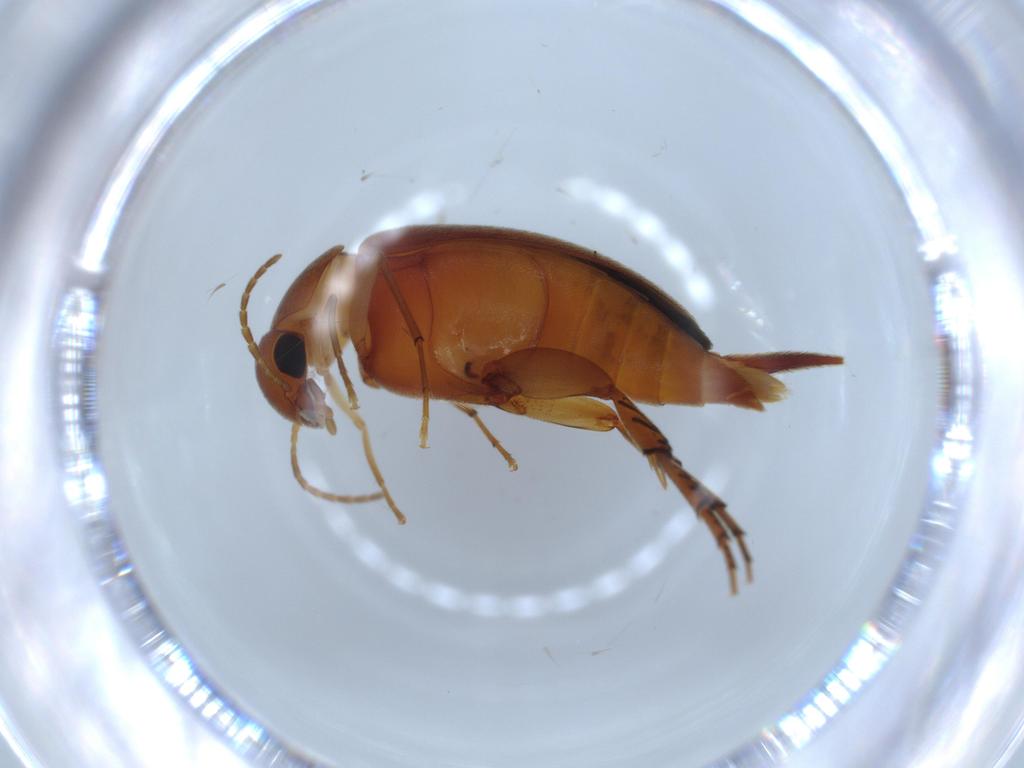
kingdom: Animalia
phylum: Arthropoda
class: Insecta
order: Coleoptera
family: Mordellidae
